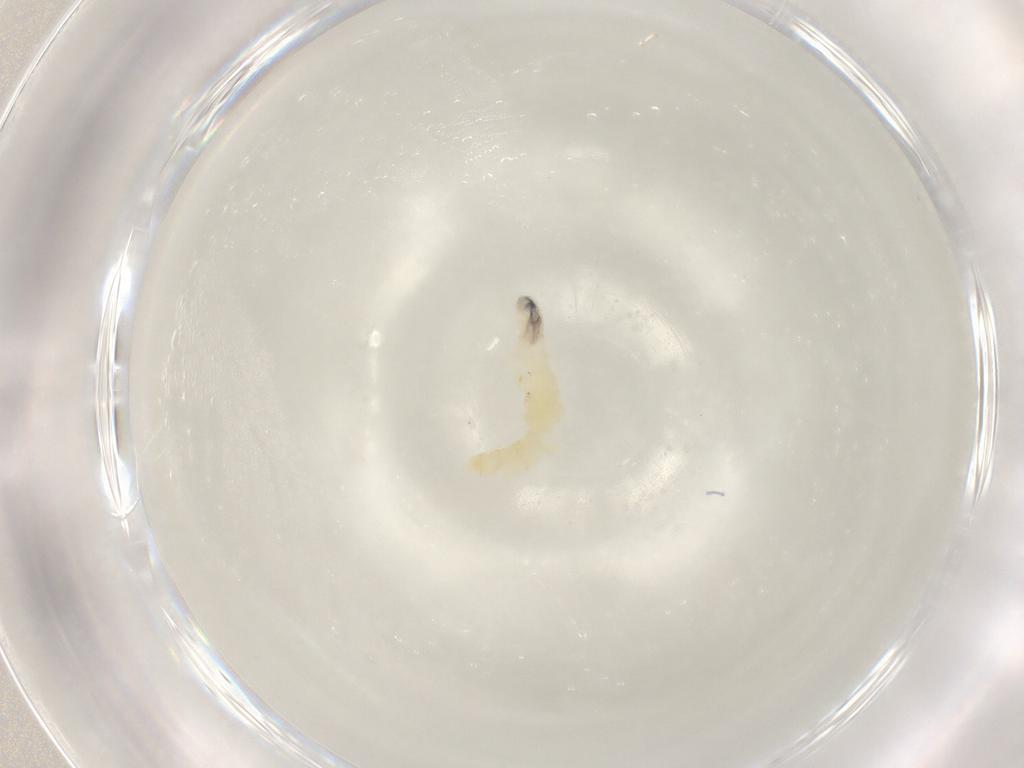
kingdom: Animalia
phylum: Arthropoda
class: Insecta
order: Diptera
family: Sarcophagidae
